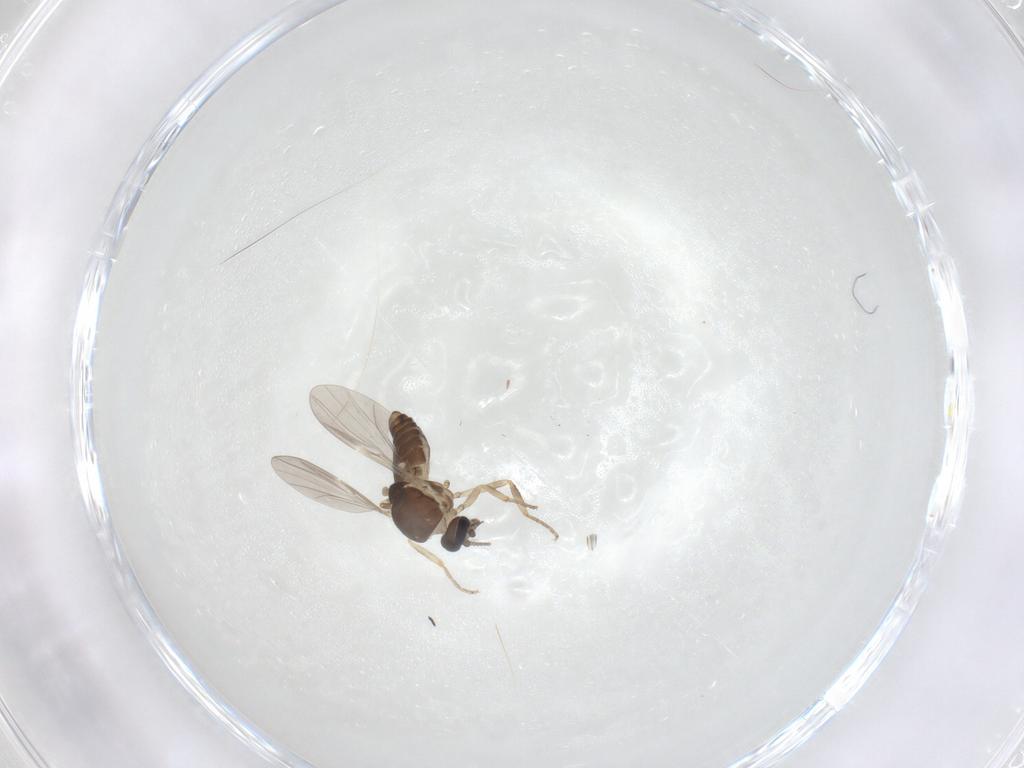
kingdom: Animalia
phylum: Arthropoda
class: Insecta
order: Diptera
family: Ceratopogonidae
